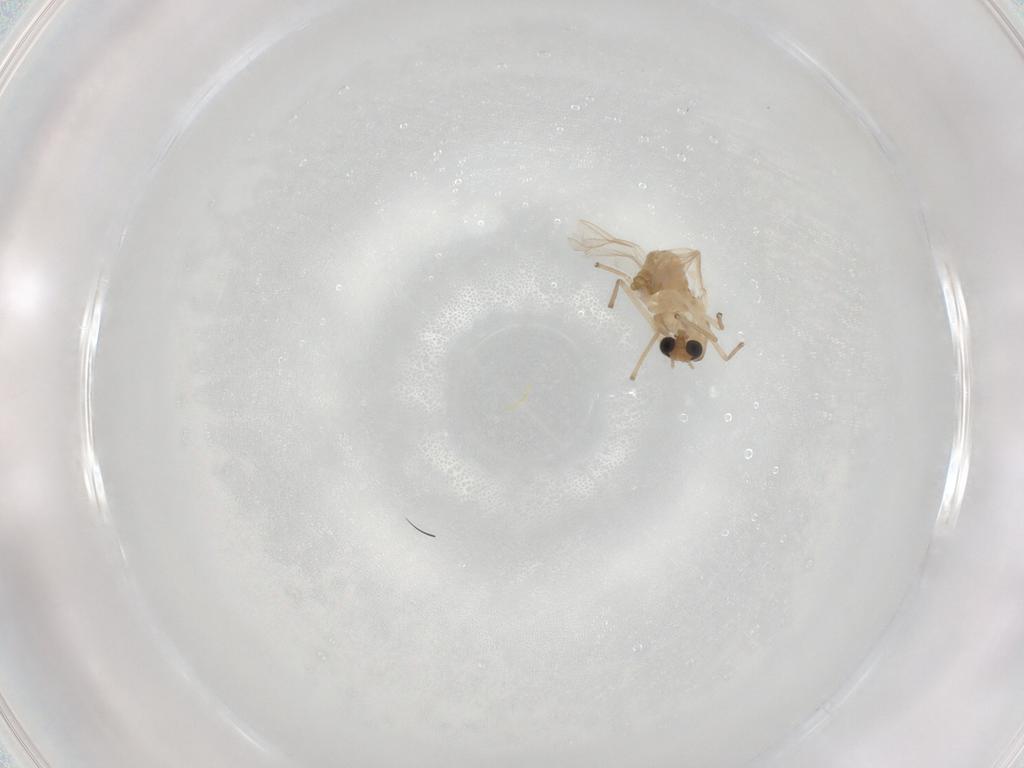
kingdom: Animalia
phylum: Arthropoda
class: Insecta
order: Diptera
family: Chironomidae
